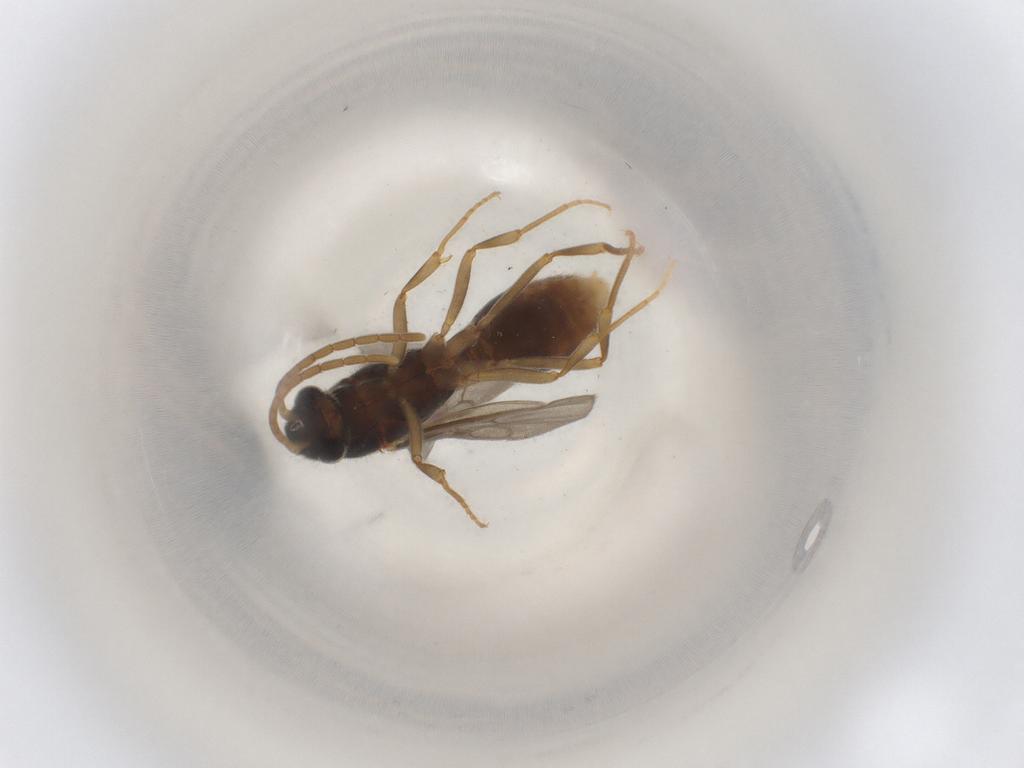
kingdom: Animalia
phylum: Arthropoda
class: Insecta
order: Hymenoptera
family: Formicidae
